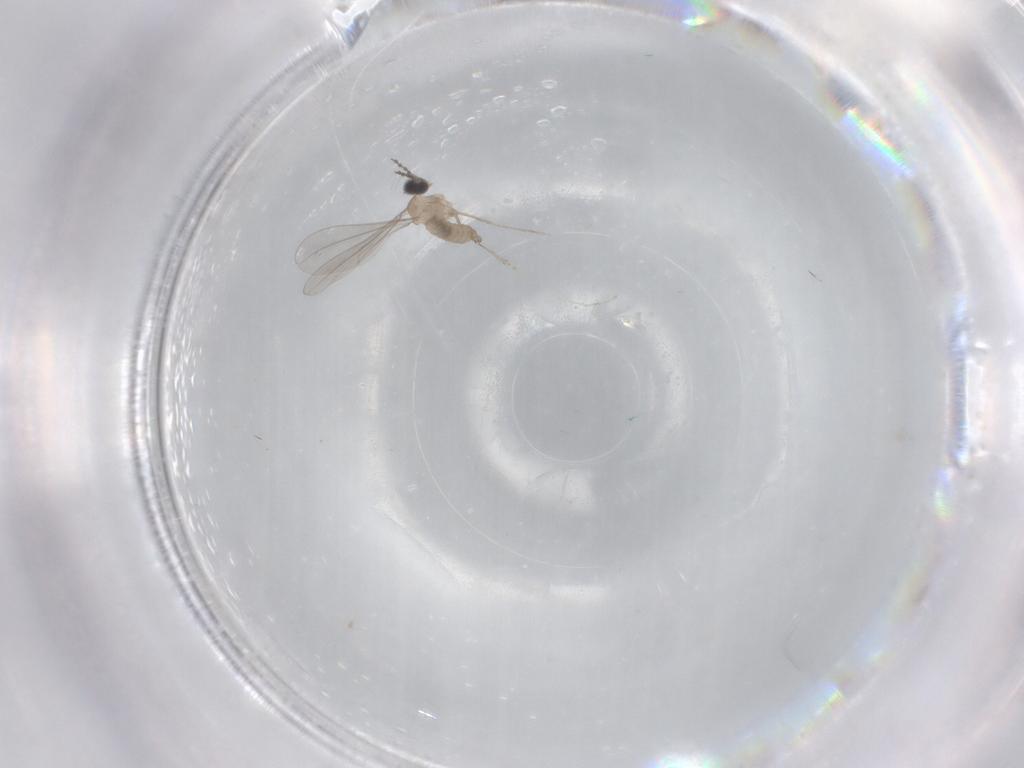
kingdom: Animalia
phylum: Arthropoda
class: Insecta
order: Diptera
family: Cecidomyiidae
